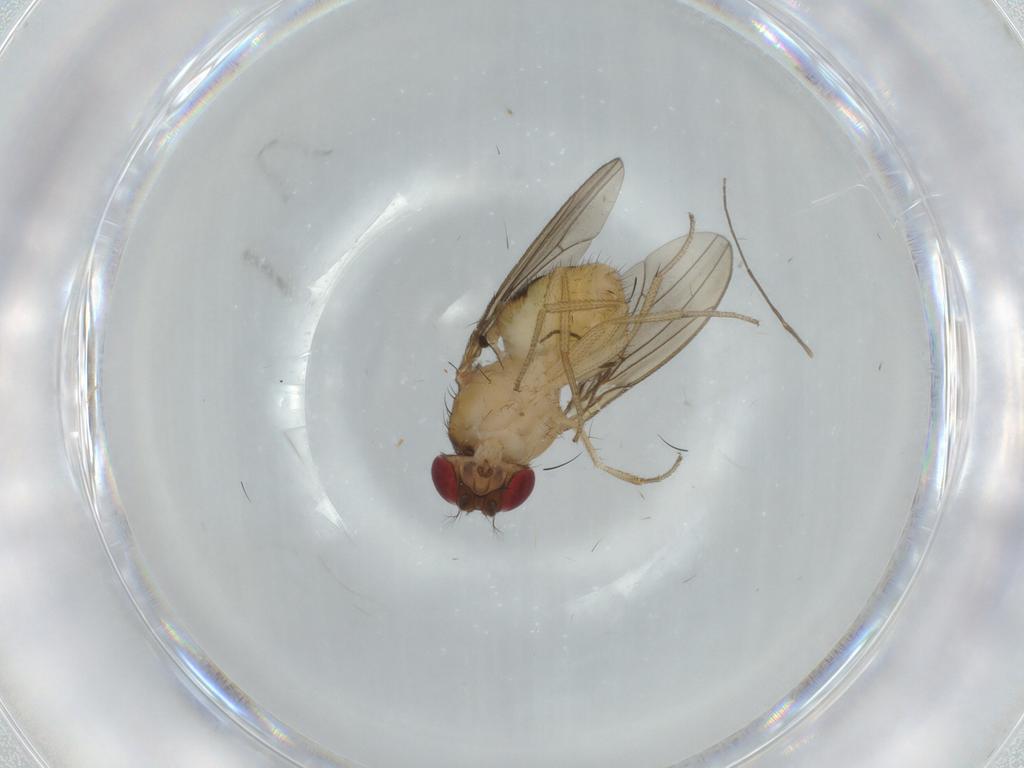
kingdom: Animalia
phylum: Arthropoda
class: Insecta
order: Diptera
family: Drosophilidae
